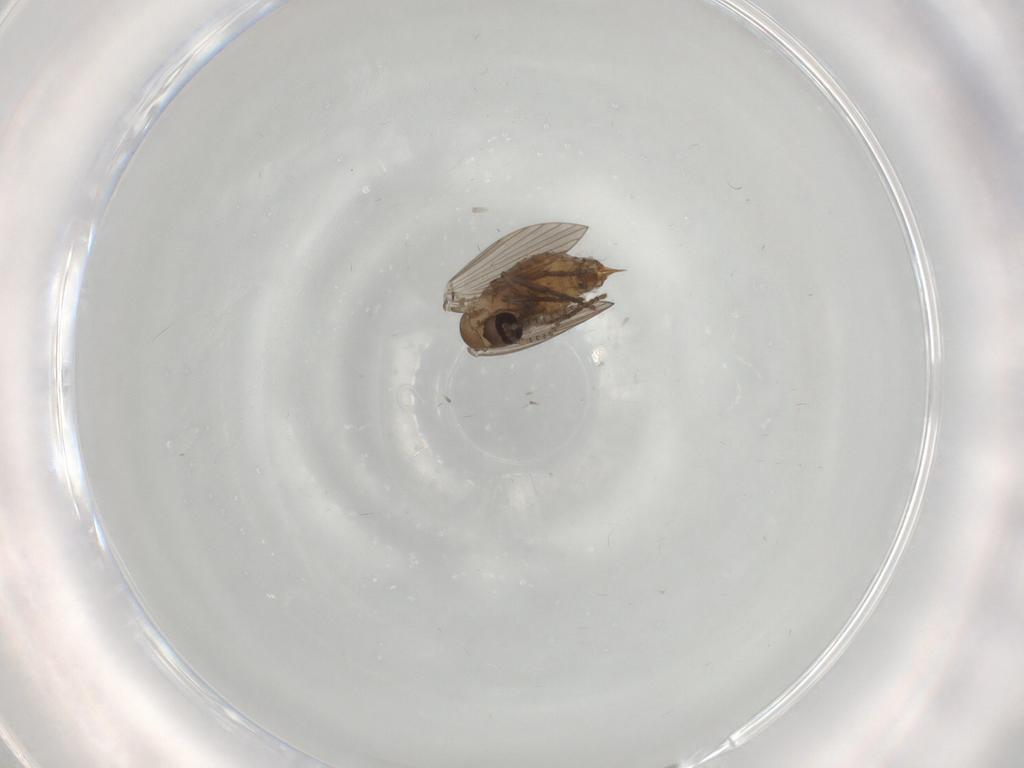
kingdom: Animalia
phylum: Arthropoda
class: Insecta
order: Diptera
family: Psychodidae
